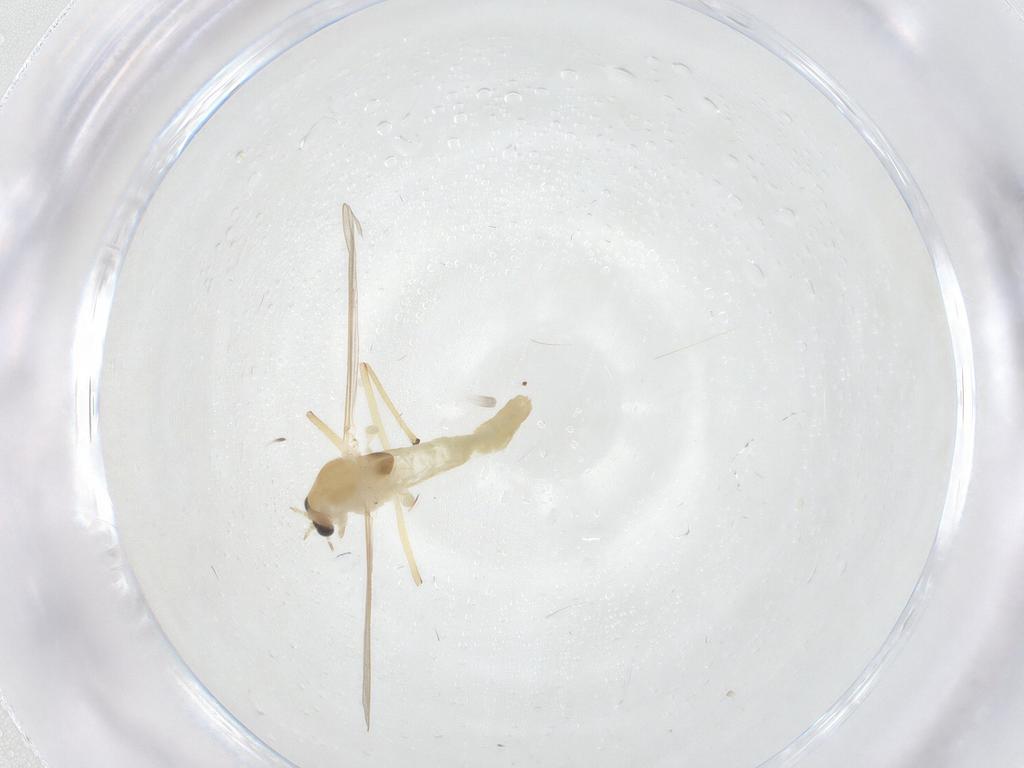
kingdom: Animalia
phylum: Arthropoda
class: Insecta
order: Diptera
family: Chironomidae
